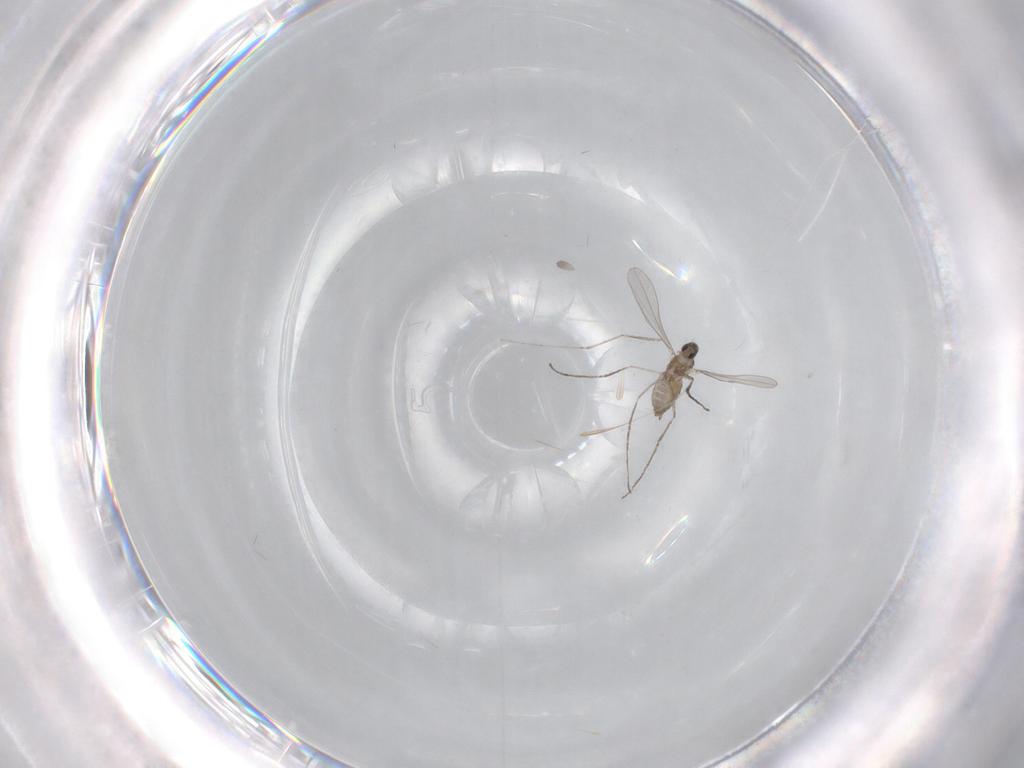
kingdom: Animalia
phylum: Arthropoda
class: Insecta
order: Diptera
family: Cecidomyiidae
